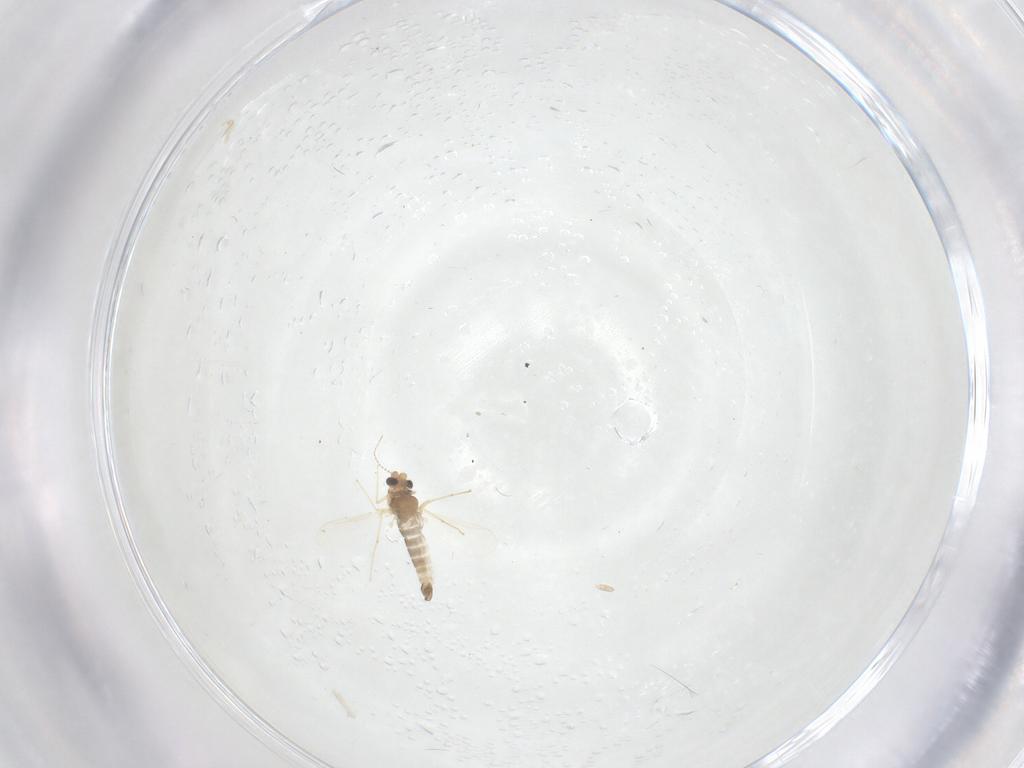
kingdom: Animalia
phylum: Arthropoda
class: Insecta
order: Diptera
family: Chironomidae
